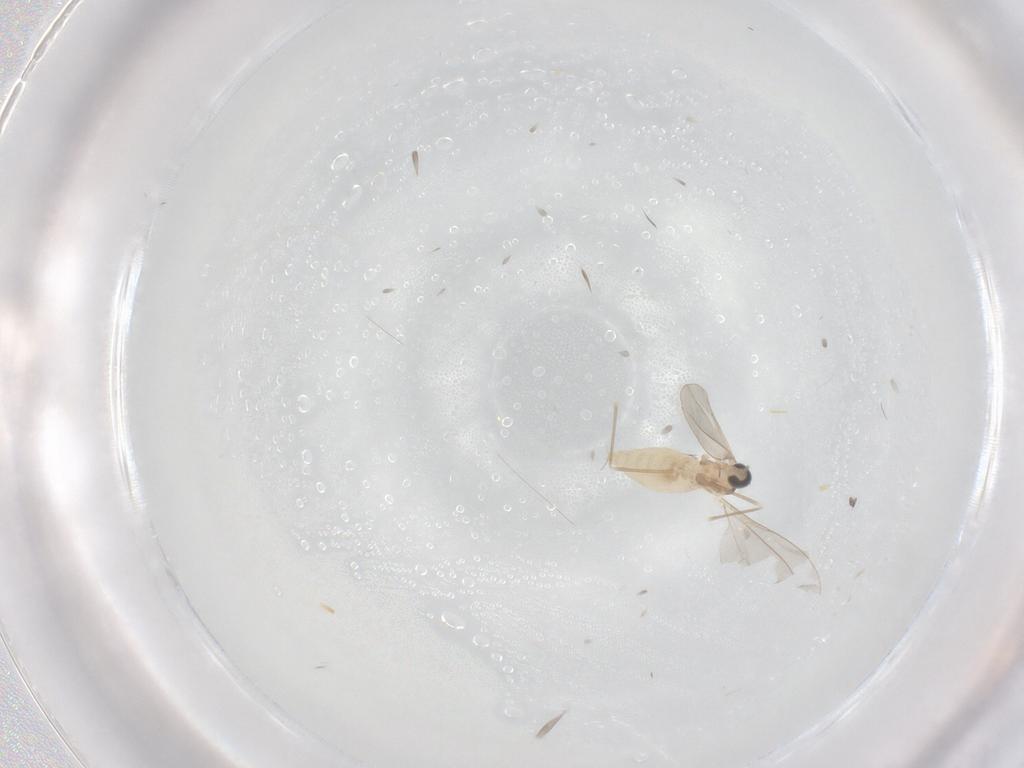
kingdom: Animalia
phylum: Arthropoda
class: Insecta
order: Diptera
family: Cecidomyiidae
